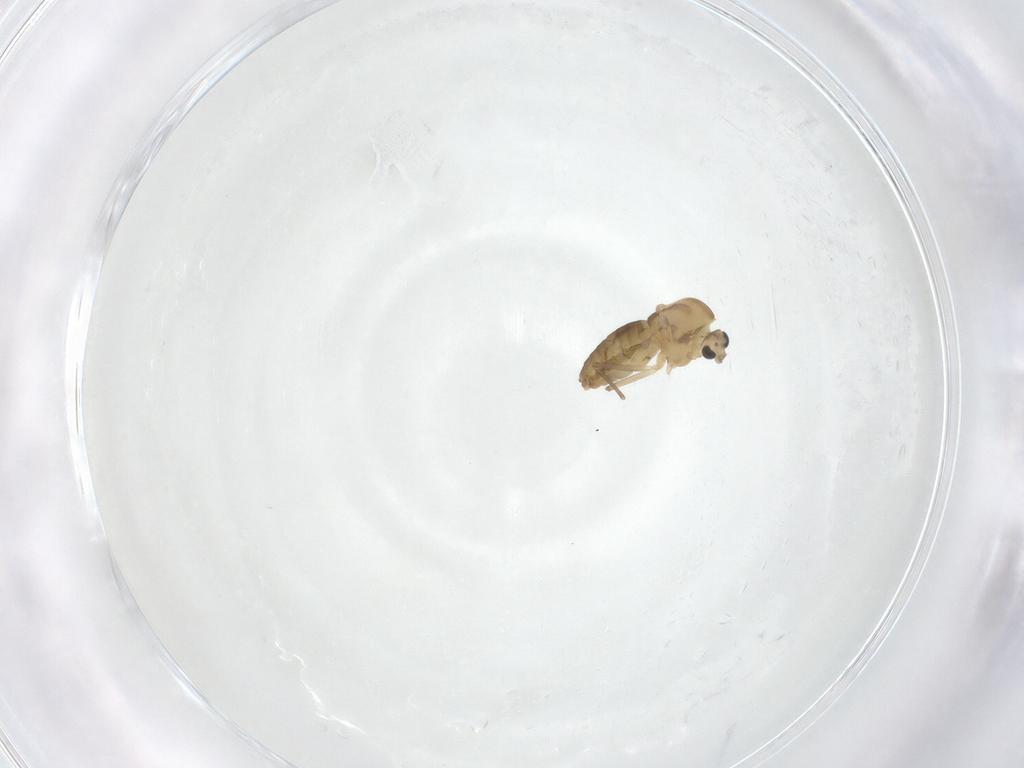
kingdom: Animalia
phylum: Arthropoda
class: Insecta
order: Diptera
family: Chironomidae
